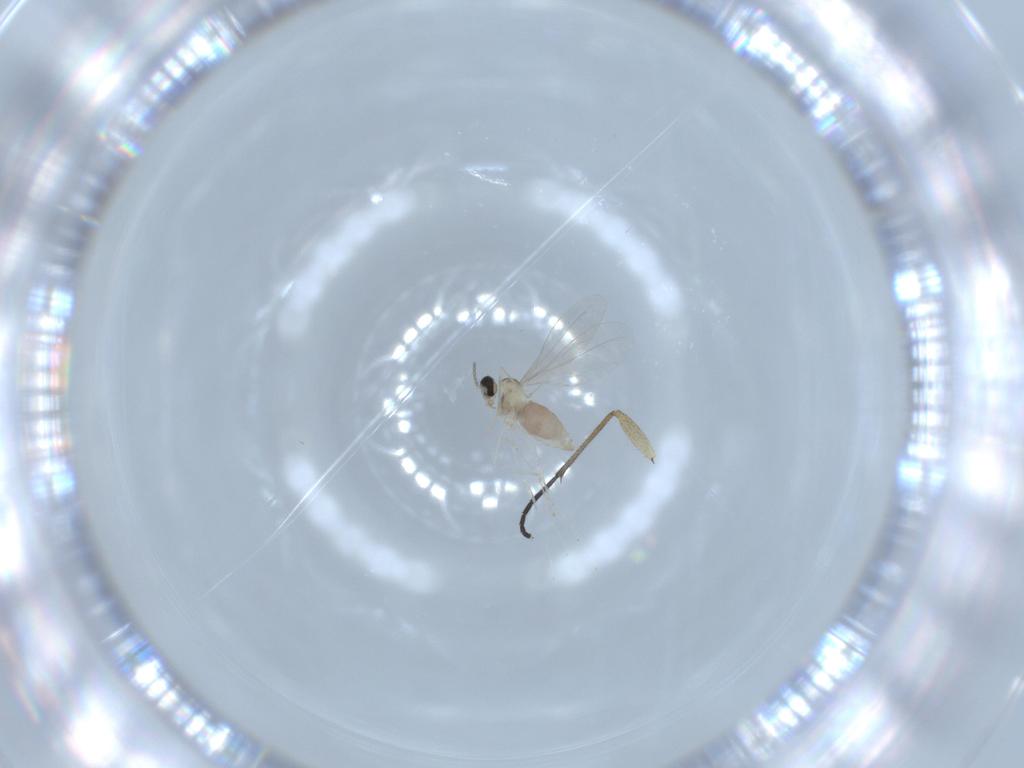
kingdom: Animalia
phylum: Arthropoda
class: Insecta
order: Diptera
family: Sciaridae
